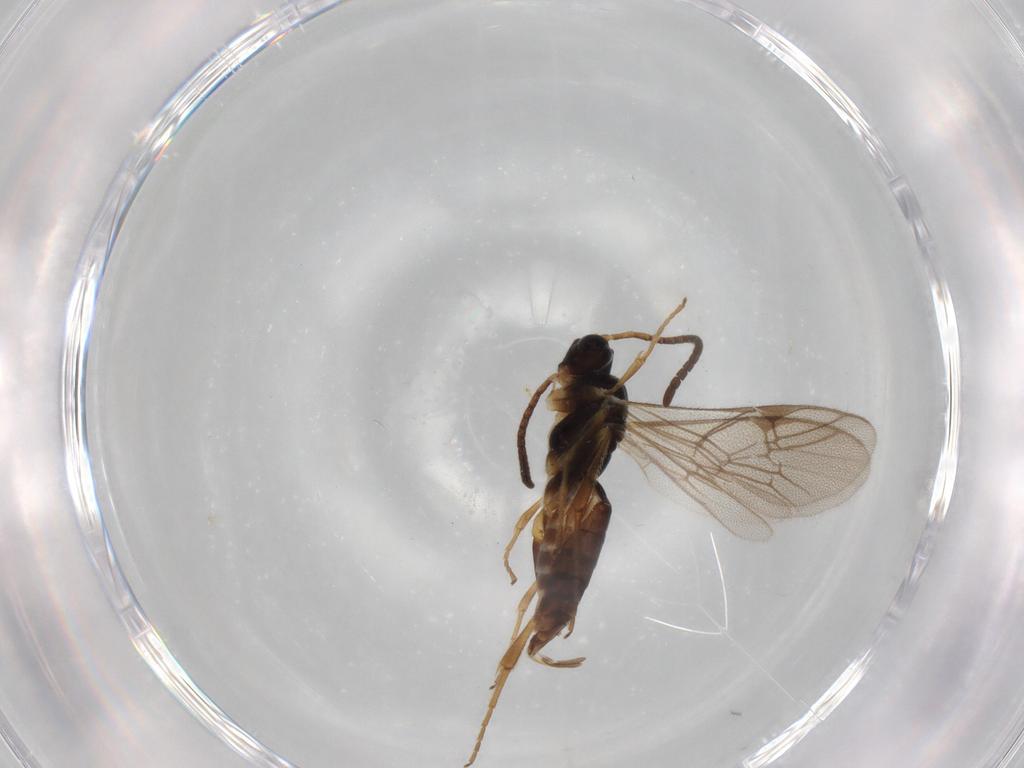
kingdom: Animalia
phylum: Arthropoda
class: Insecta
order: Hymenoptera
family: Ichneumonidae
